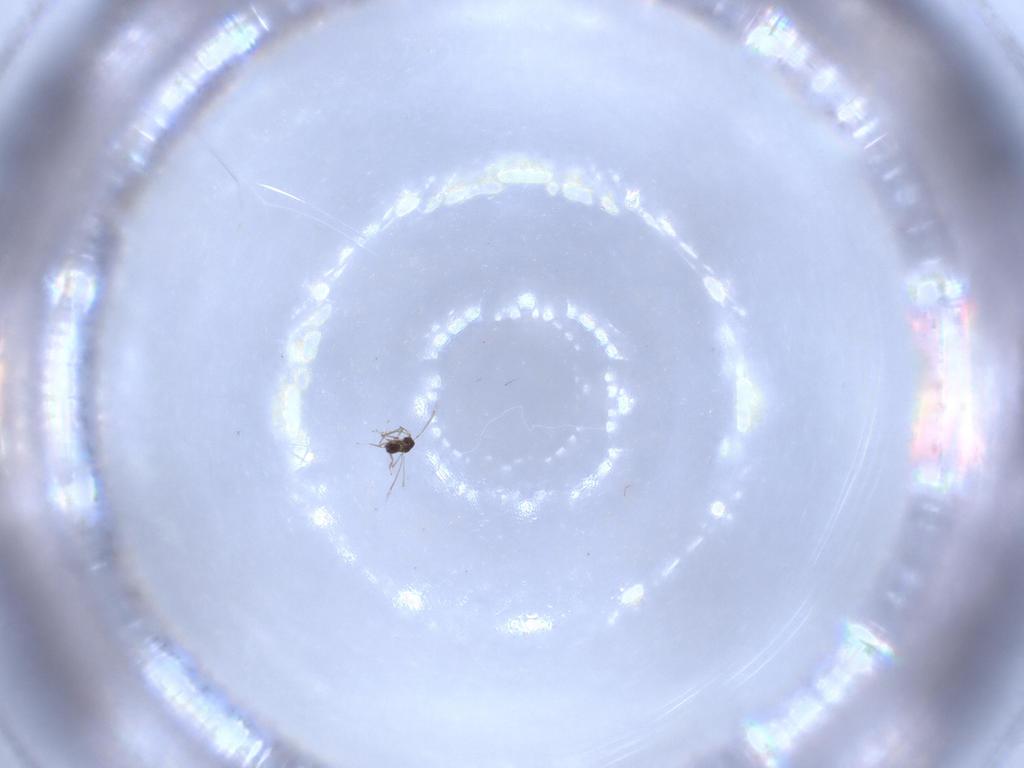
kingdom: Animalia
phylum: Arthropoda
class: Insecta
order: Hymenoptera
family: Mymaridae
